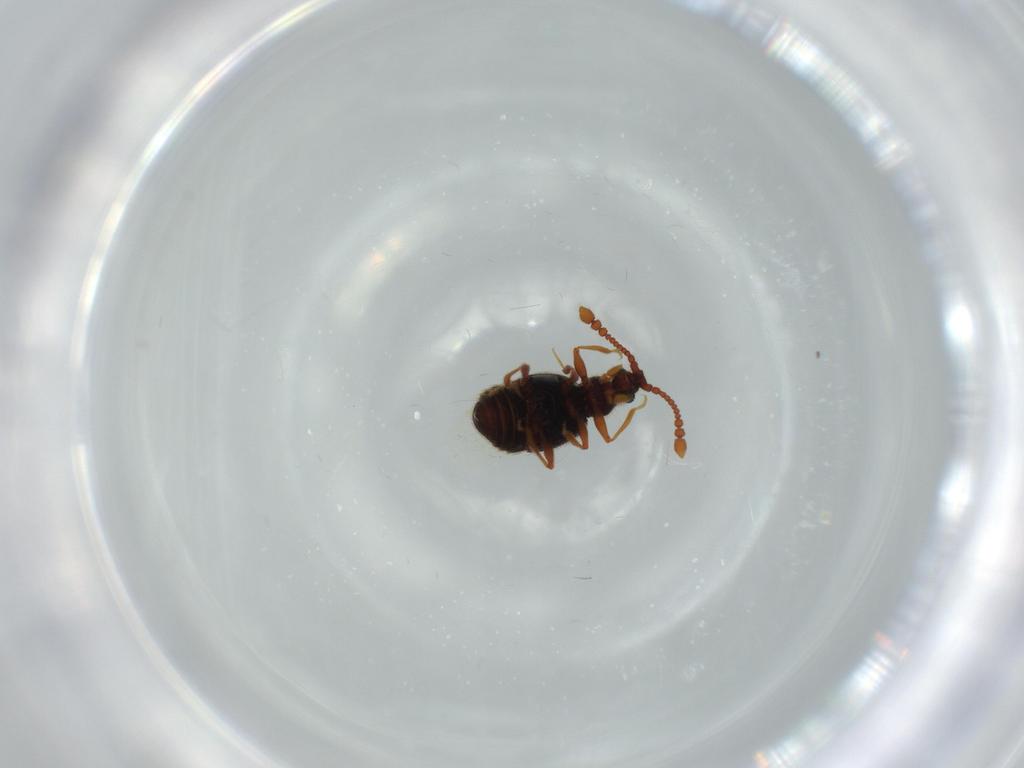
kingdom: Animalia
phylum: Arthropoda
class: Insecta
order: Coleoptera
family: Staphylinidae
